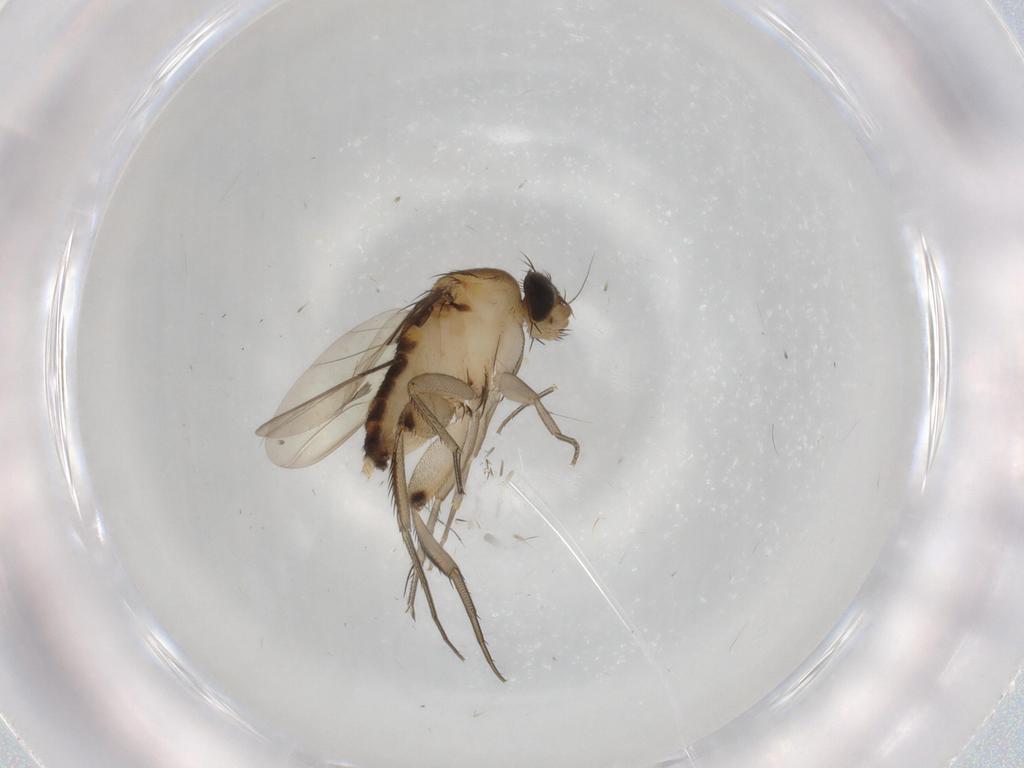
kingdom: Animalia
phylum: Arthropoda
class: Insecta
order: Diptera
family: Phoridae
